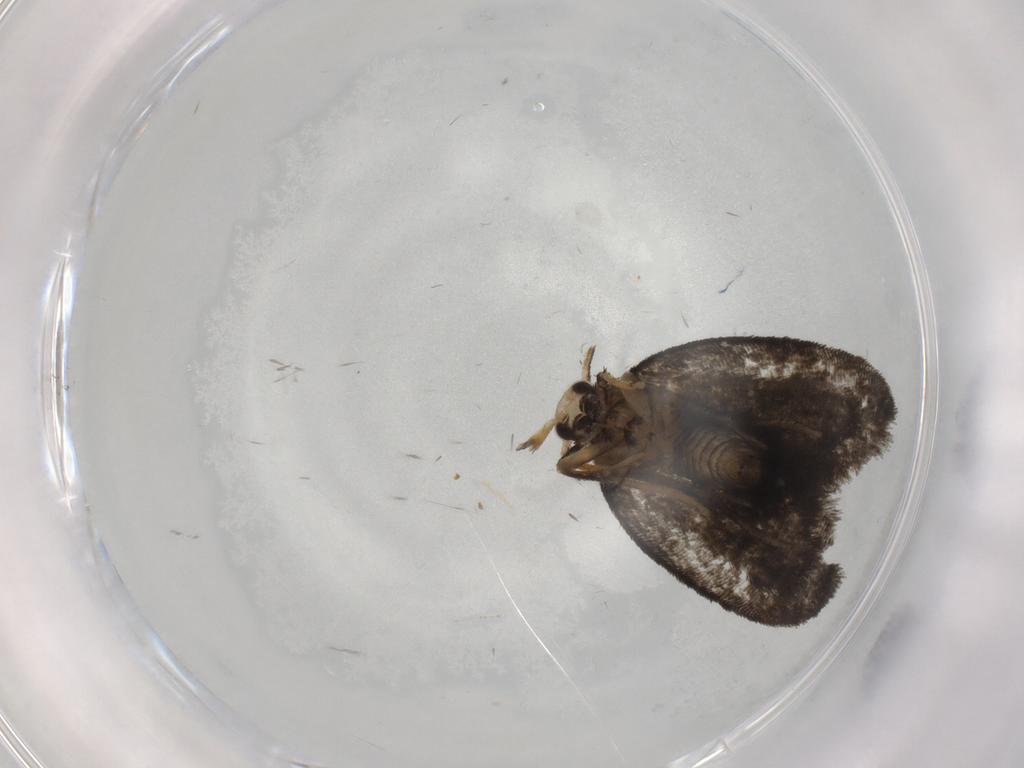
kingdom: Animalia
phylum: Arthropoda
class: Insecta
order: Lepidoptera
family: Psychidae
